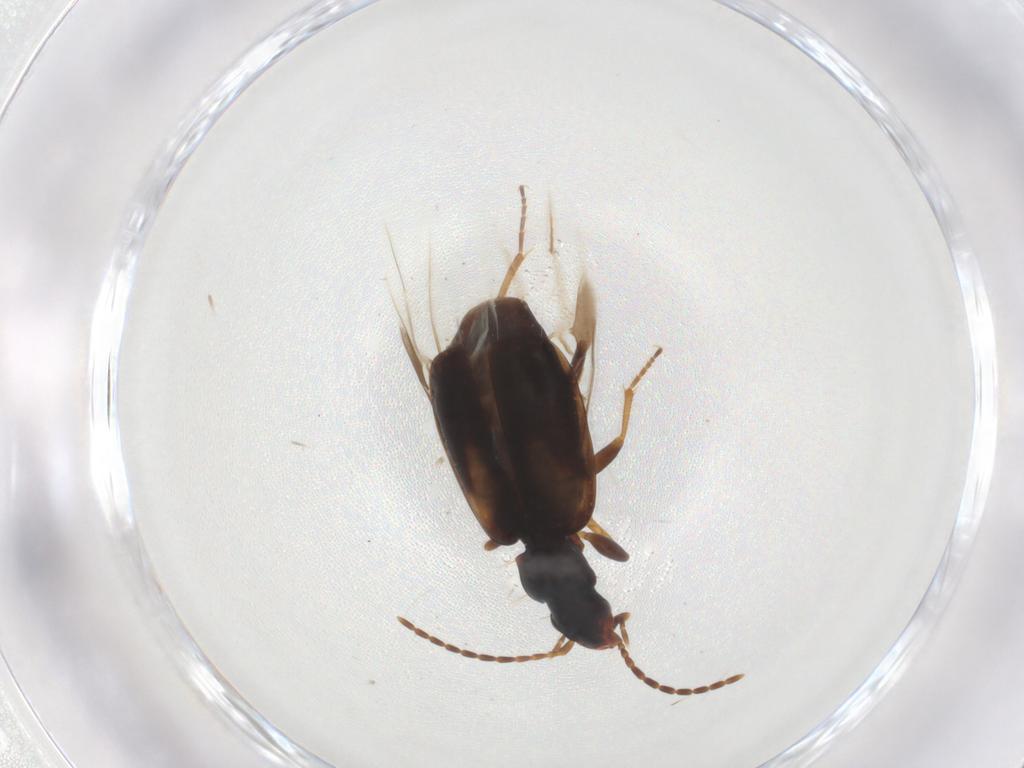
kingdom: Animalia
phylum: Arthropoda
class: Insecta
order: Coleoptera
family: Carabidae
